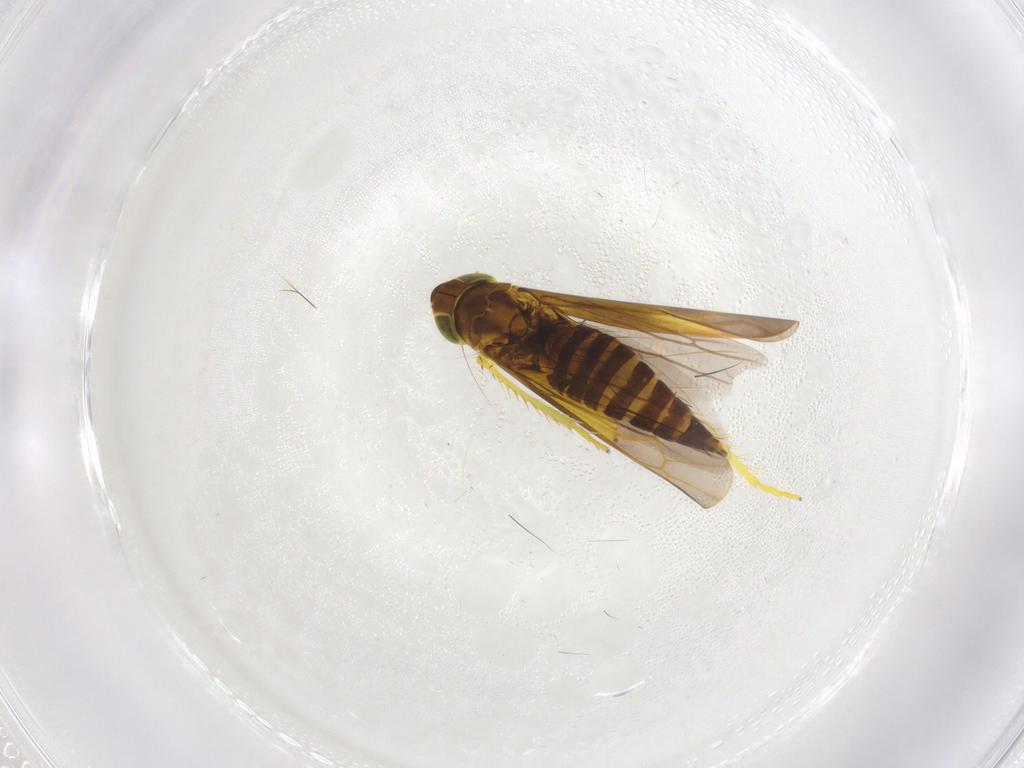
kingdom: Animalia
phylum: Arthropoda
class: Insecta
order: Hemiptera
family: Cicadellidae
